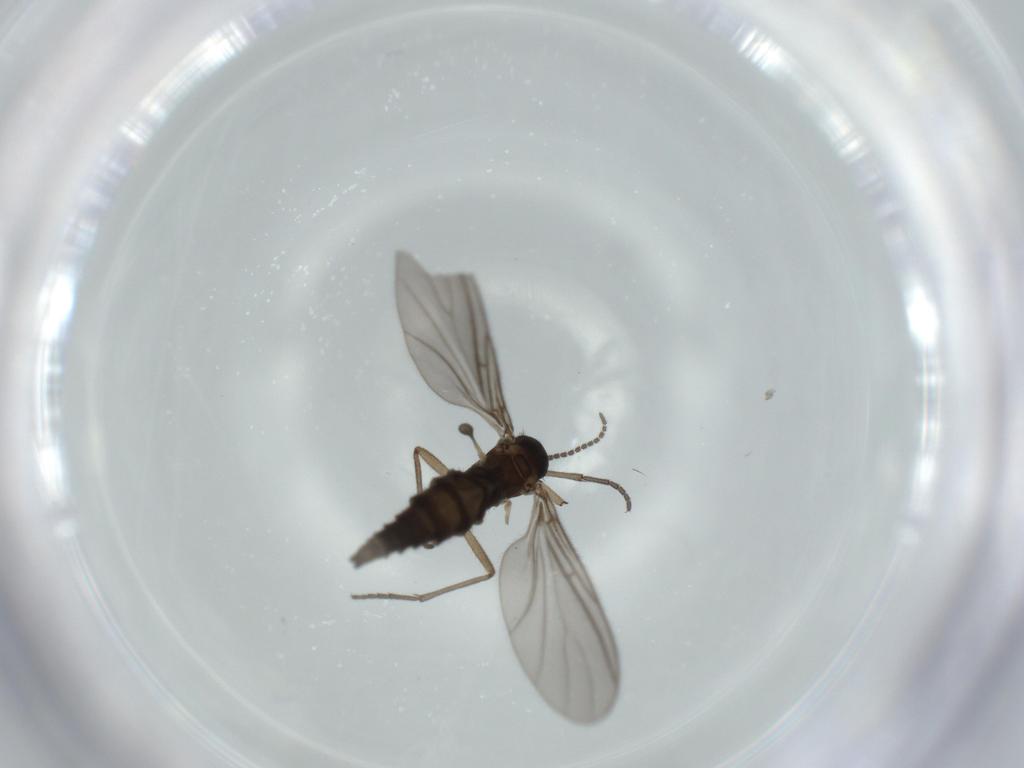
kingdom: Animalia
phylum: Arthropoda
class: Insecta
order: Diptera
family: Sciaridae
